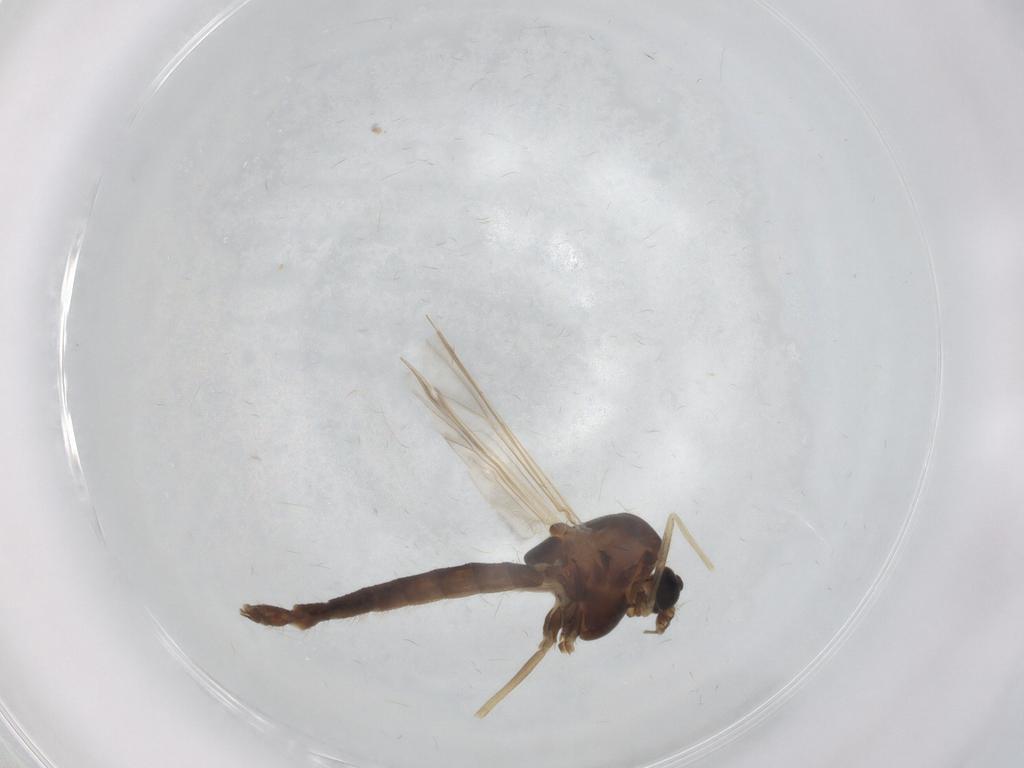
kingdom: Animalia
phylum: Arthropoda
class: Insecta
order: Diptera
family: Chironomidae
